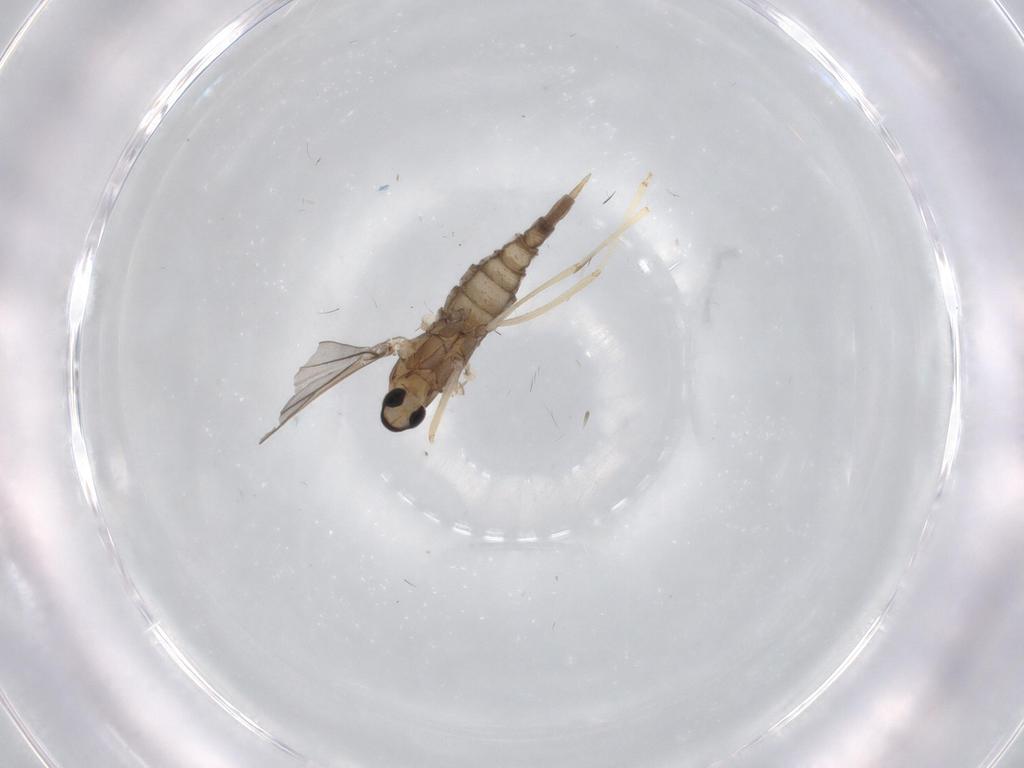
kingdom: Animalia
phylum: Arthropoda
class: Insecta
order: Diptera
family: Cecidomyiidae
